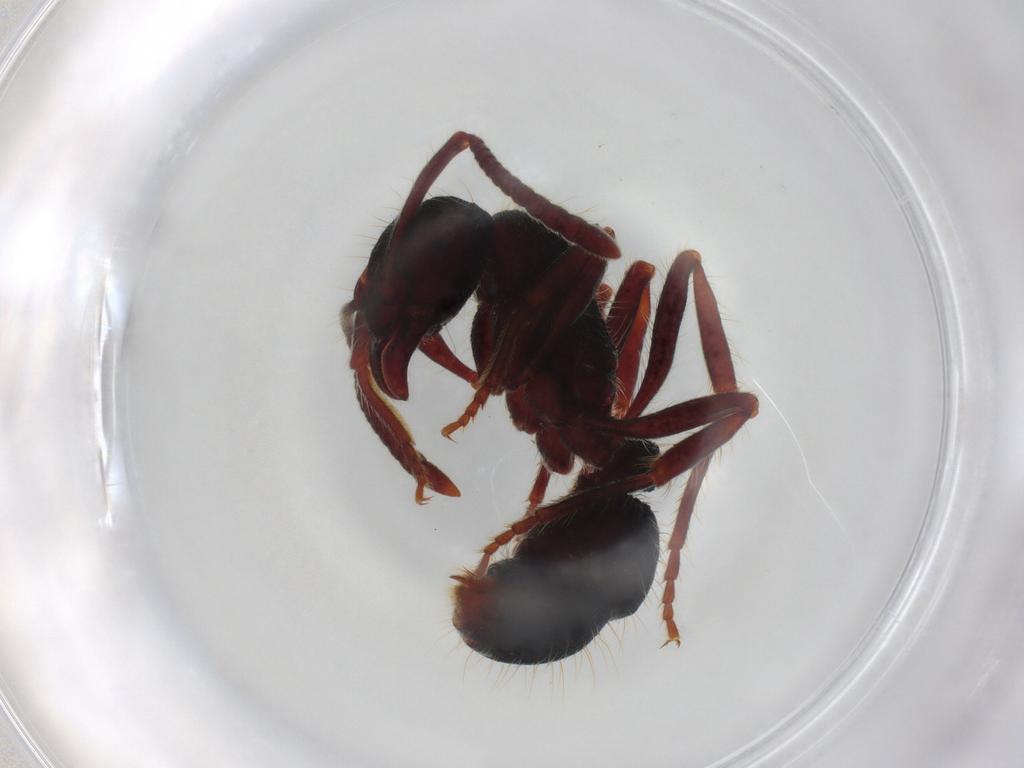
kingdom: Animalia
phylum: Arthropoda
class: Insecta
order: Hymenoptera
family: Formicidae
